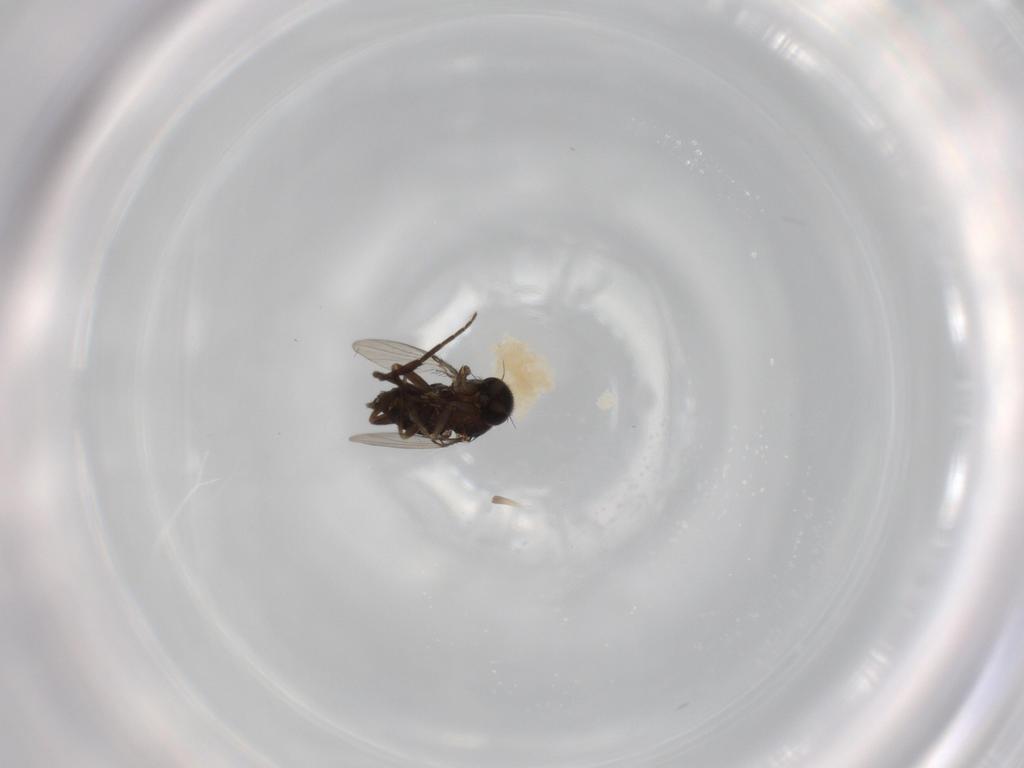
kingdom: Animalia
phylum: Arthropoda
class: Insecta
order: Diptera
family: Phoridae
